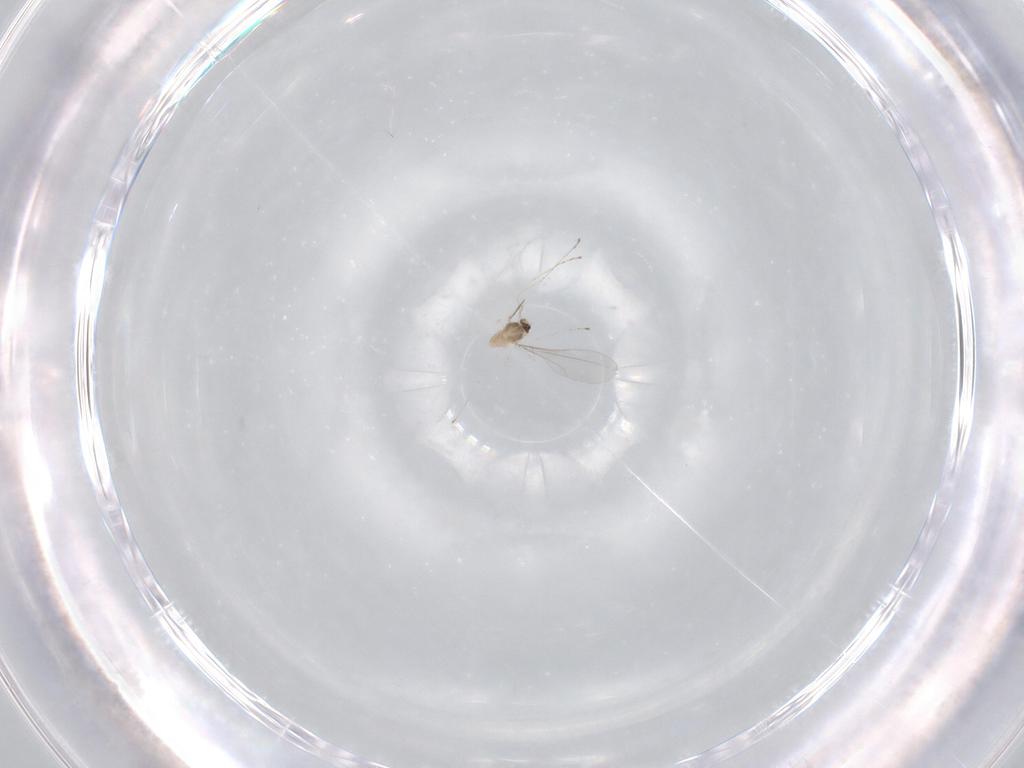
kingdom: Animalia
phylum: Arthropoda
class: Insecta
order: Diptera
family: Cecidomyiidae
